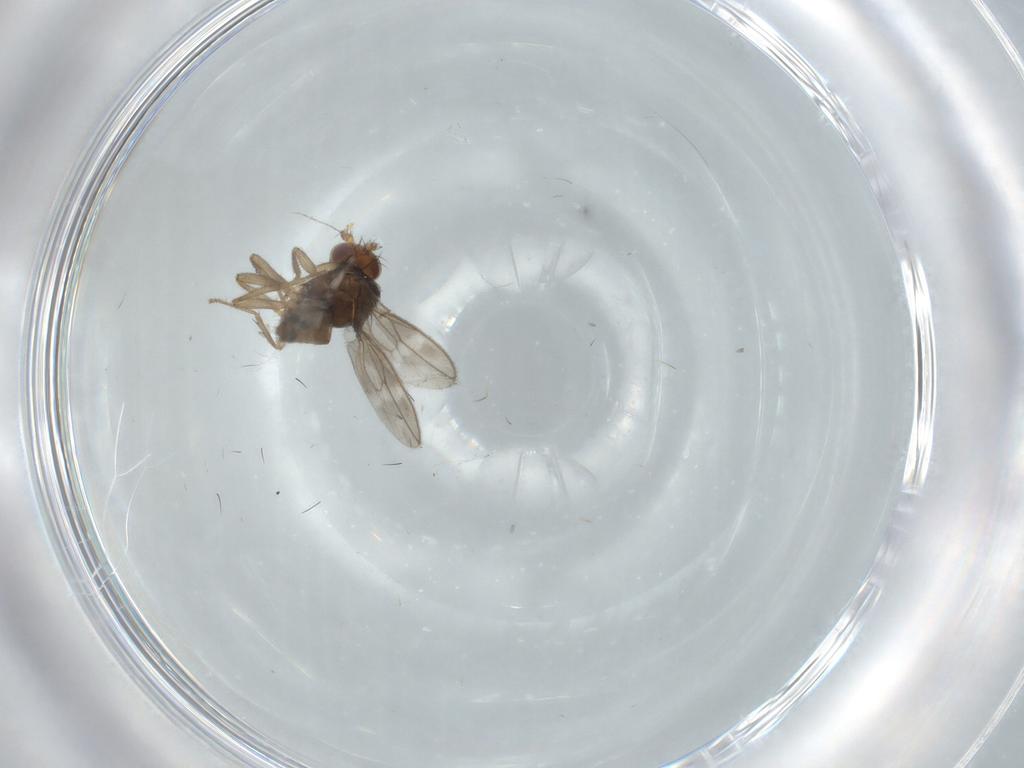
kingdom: Animalia
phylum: Arthropoda
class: Insecta
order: Diptera
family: Sphaeroceridae
